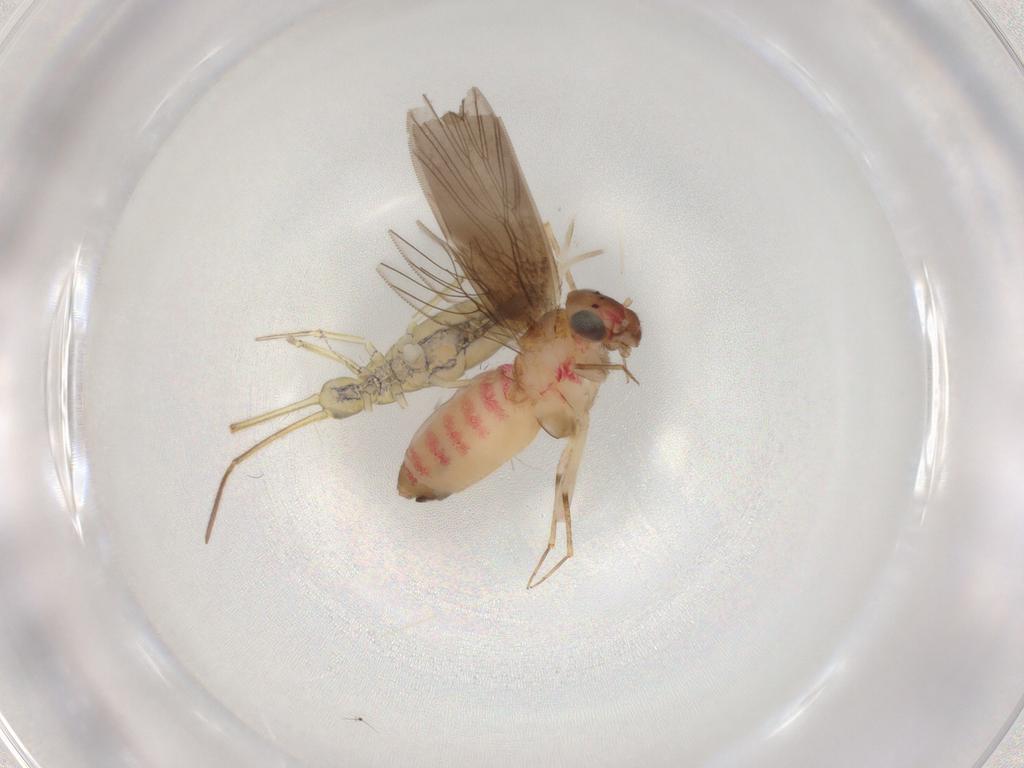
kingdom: Animalia
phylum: Arthropoda
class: Insecta
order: Psocodea
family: Lepidopsocidae
